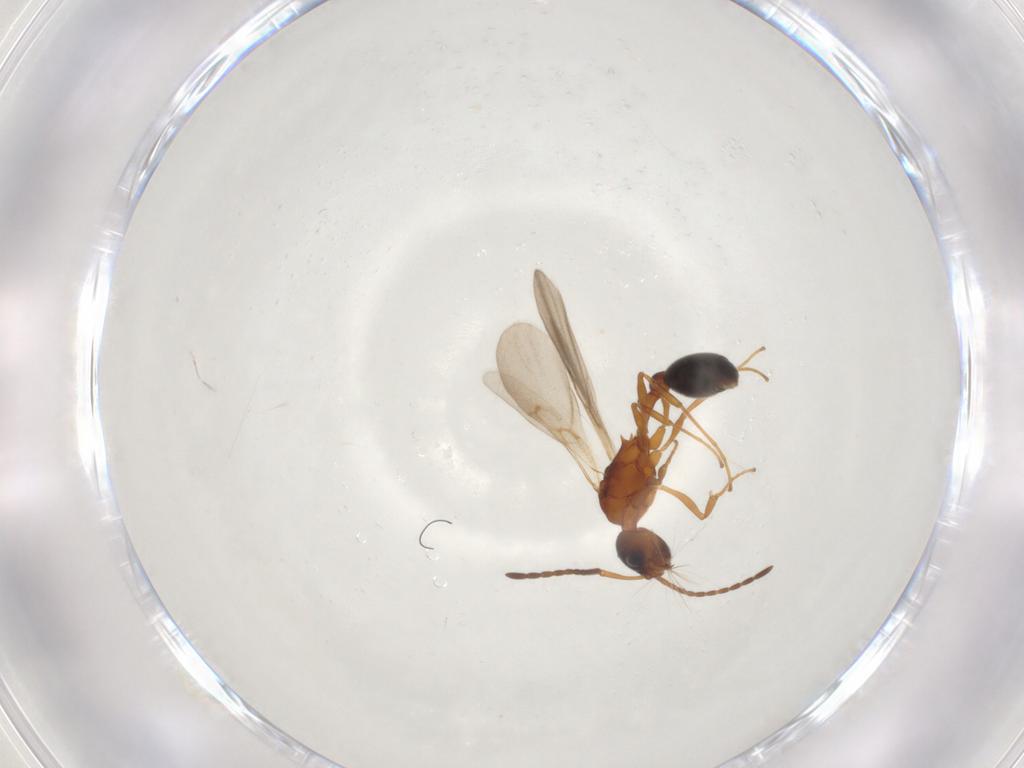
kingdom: Animalia
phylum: Arthropoda
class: Insecta
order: Hymenoptera
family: Formicidae
